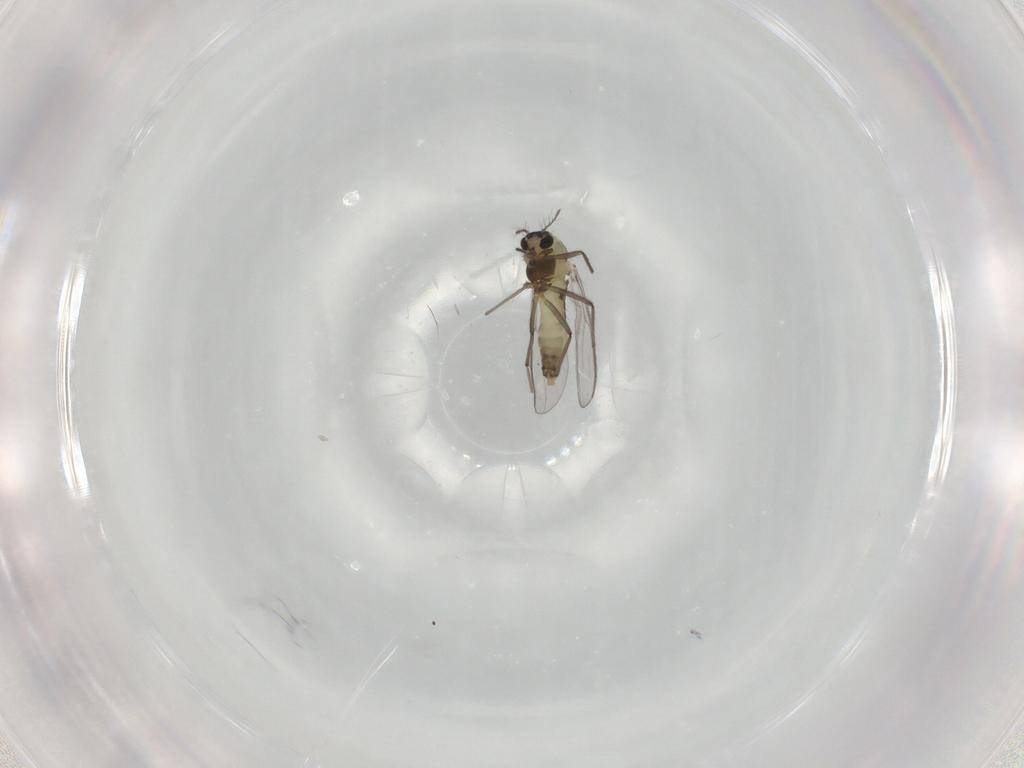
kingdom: Animalia
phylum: Arthropoda
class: Insecta
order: Diptera
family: Chironomidae
